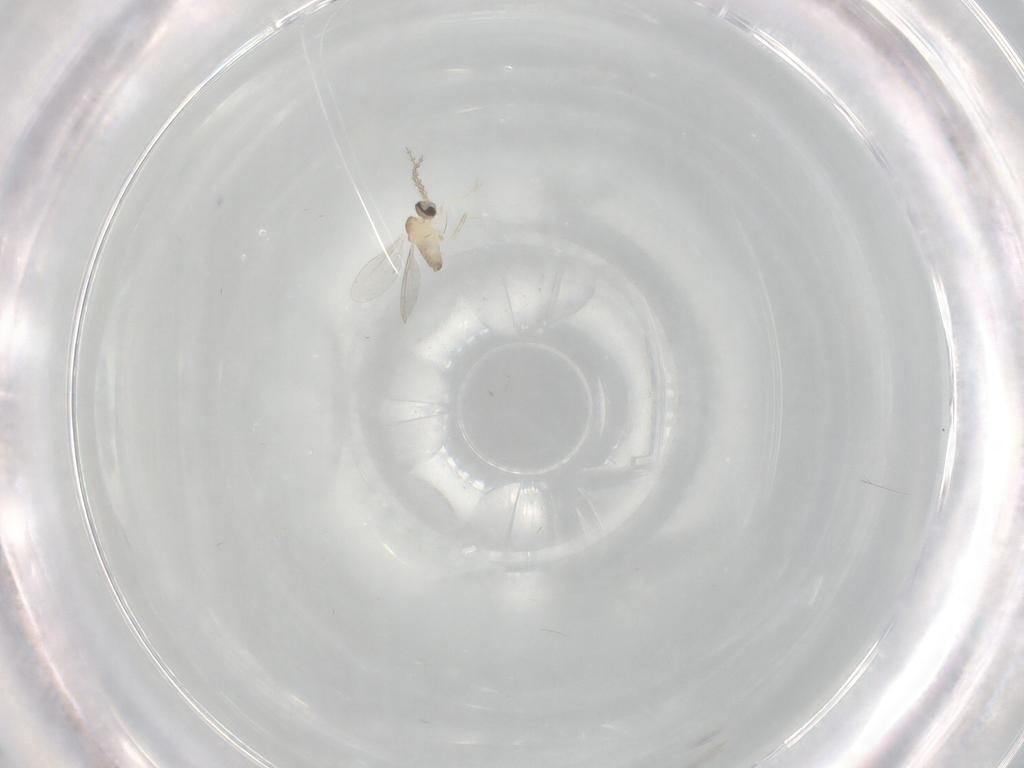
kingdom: Animalia
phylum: Arthropoda
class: Insecta
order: Diptera
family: Cecidomyiidae
